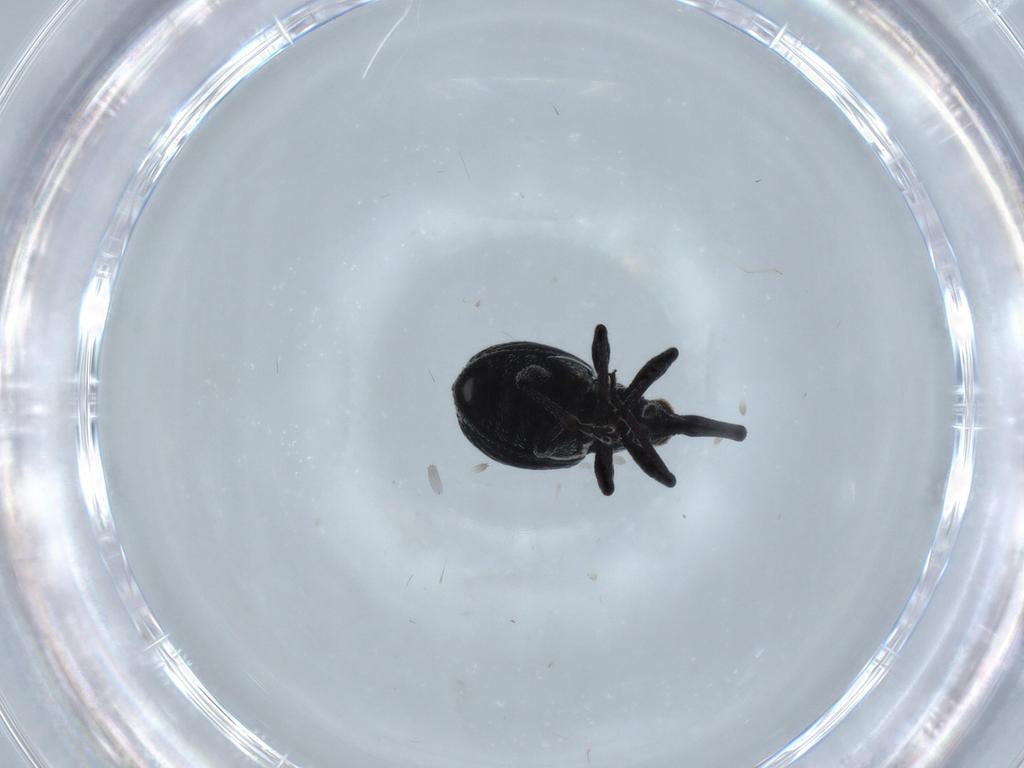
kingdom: Animalia
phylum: Arthropoda
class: Insecta
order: Coleoptera
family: Brentidae
